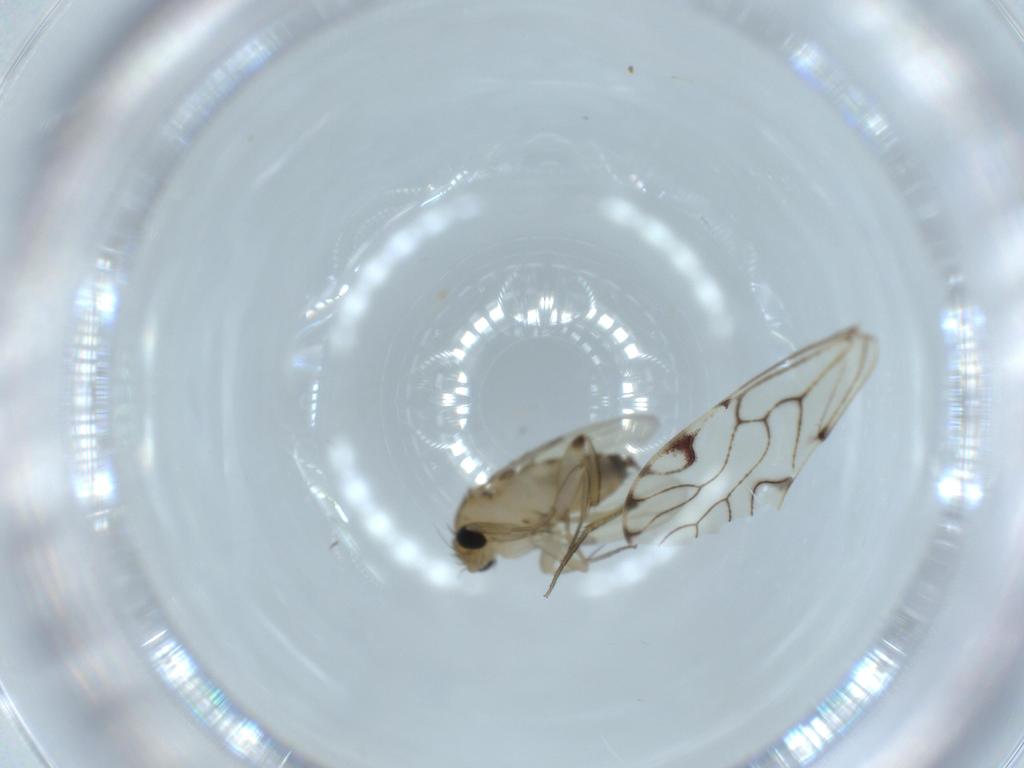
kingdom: Animalia
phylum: Arthropoda
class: Insecta
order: Diptera
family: Phoridae
